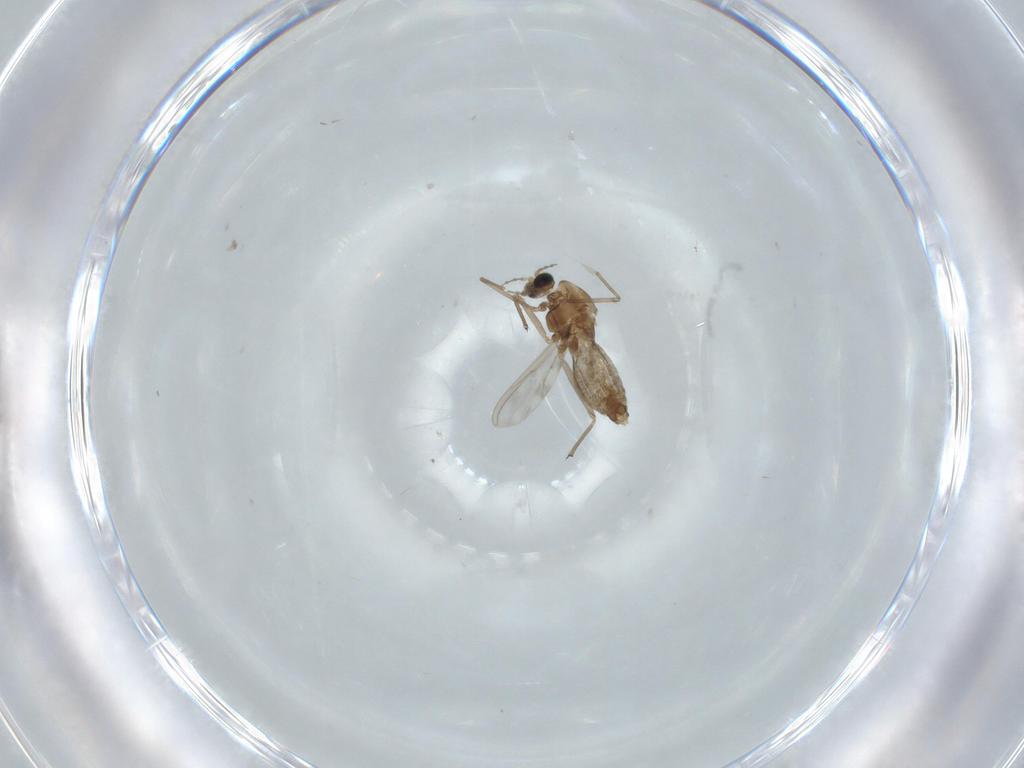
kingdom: Animalia
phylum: Arthropoda
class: Insecta
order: Diptera
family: Chironomidae
